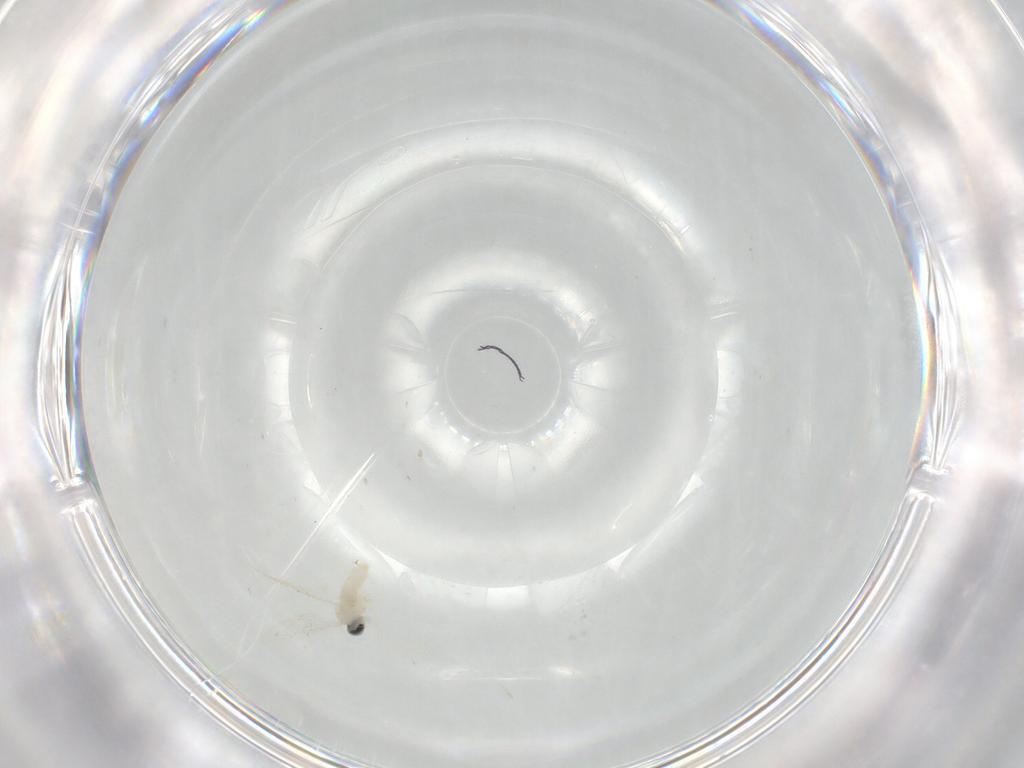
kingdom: Animalia
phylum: Arthropoda
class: Insecta
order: Diptera
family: Cecidomyiidae
